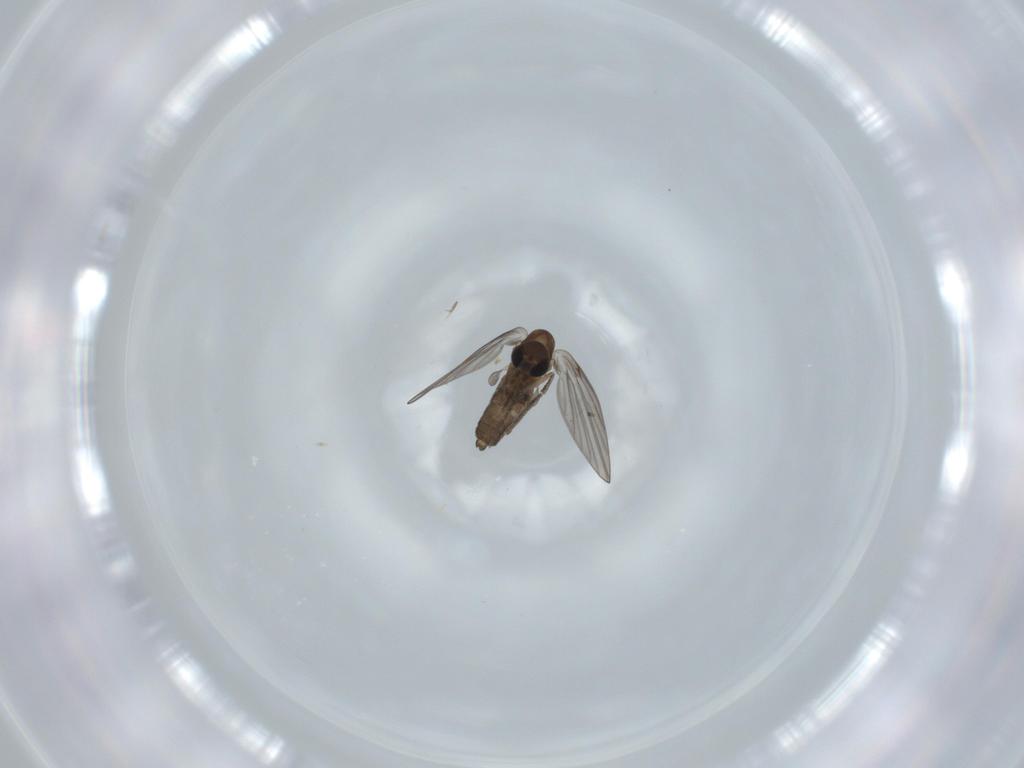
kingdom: Animalia
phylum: Arthropoda
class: Insecta
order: Diptera
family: Psychodidae
